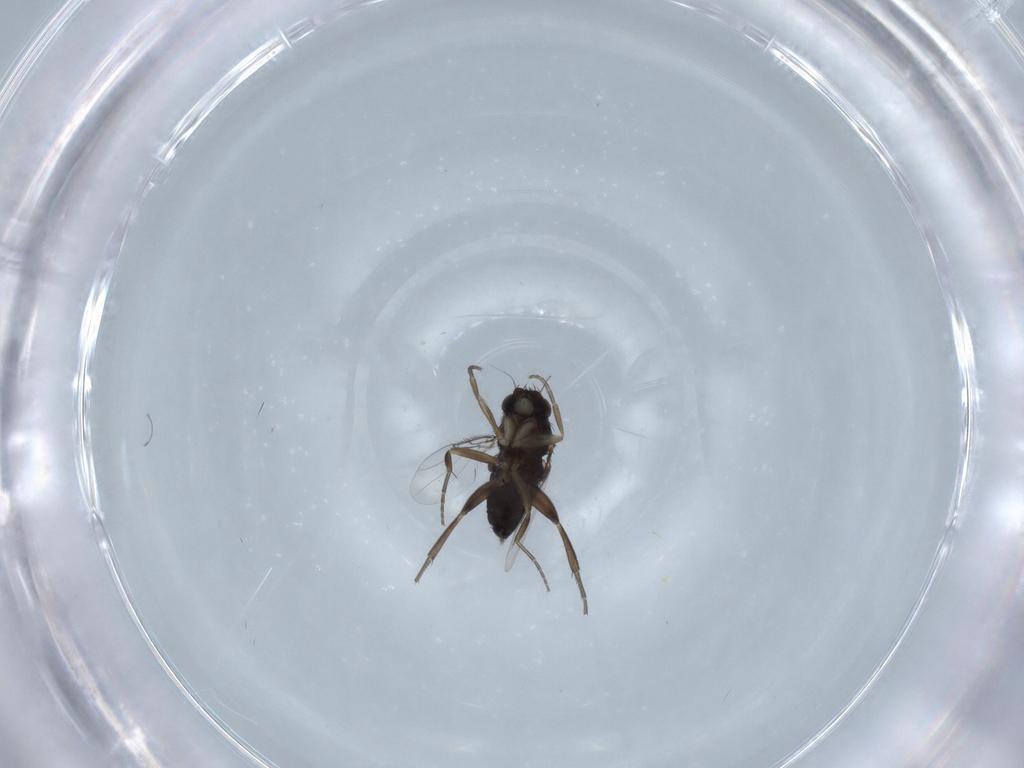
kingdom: Animalia
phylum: Arthropoda
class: Insecta
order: Diptera
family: Phoridae
